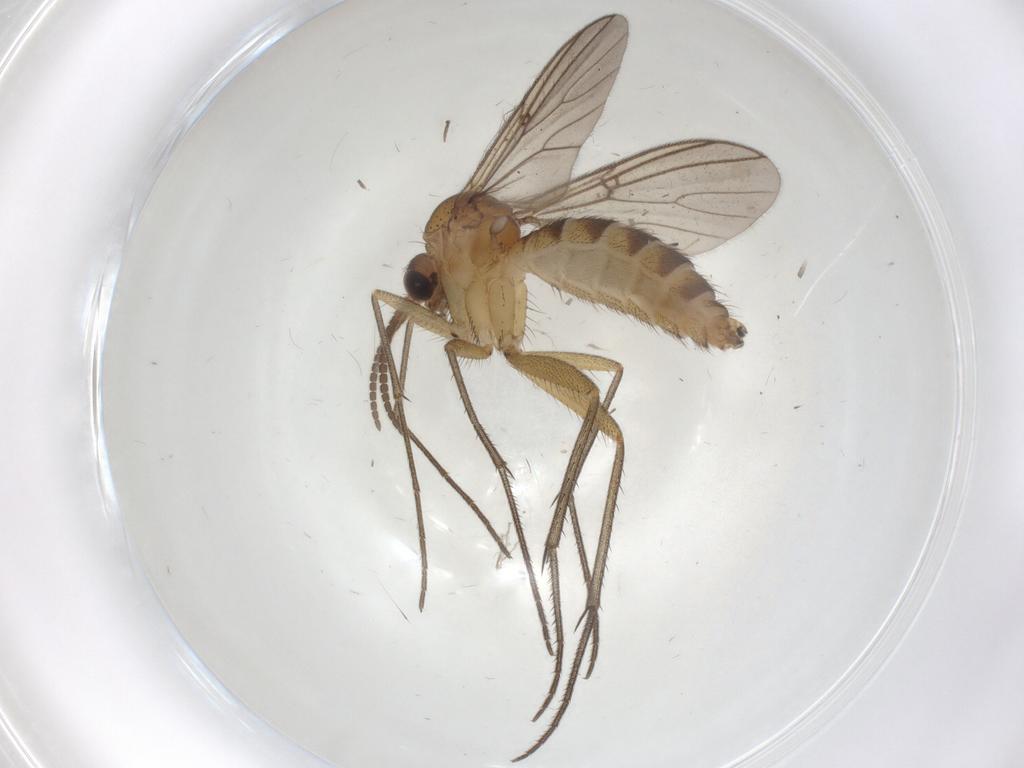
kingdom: Animalia
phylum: Arthropoda
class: Insecta
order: Diptera
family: Mycetophilidae
